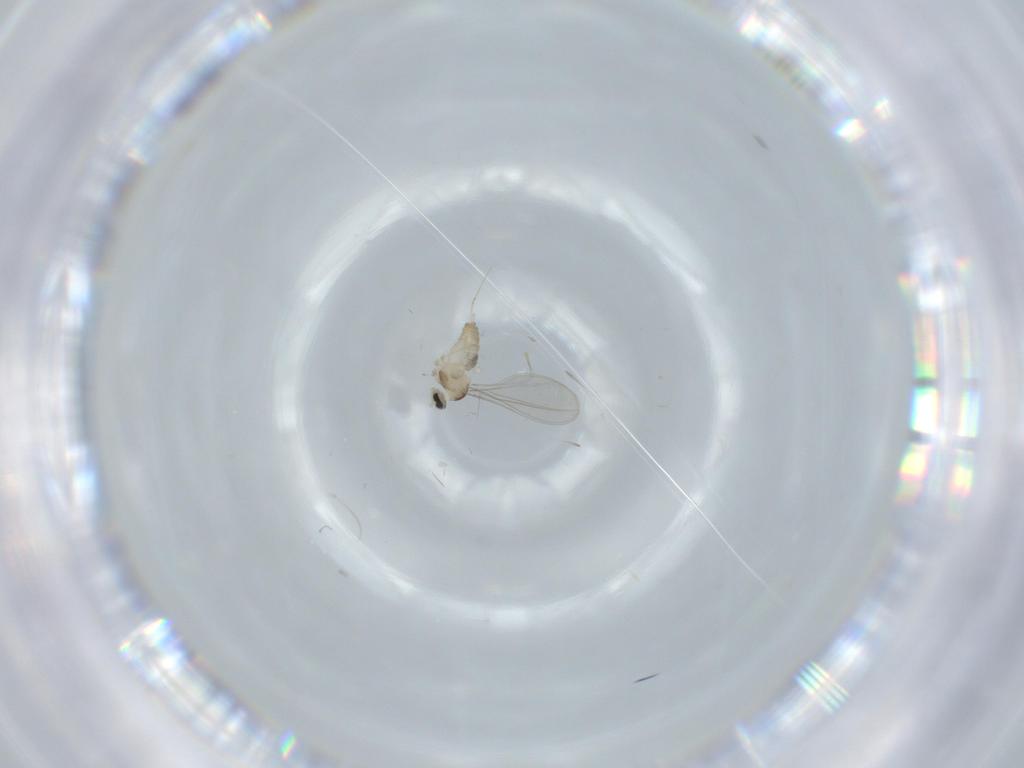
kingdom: Animalia
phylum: Arthropoda
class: Insecta
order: Diptera
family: Cecidomyiidae
